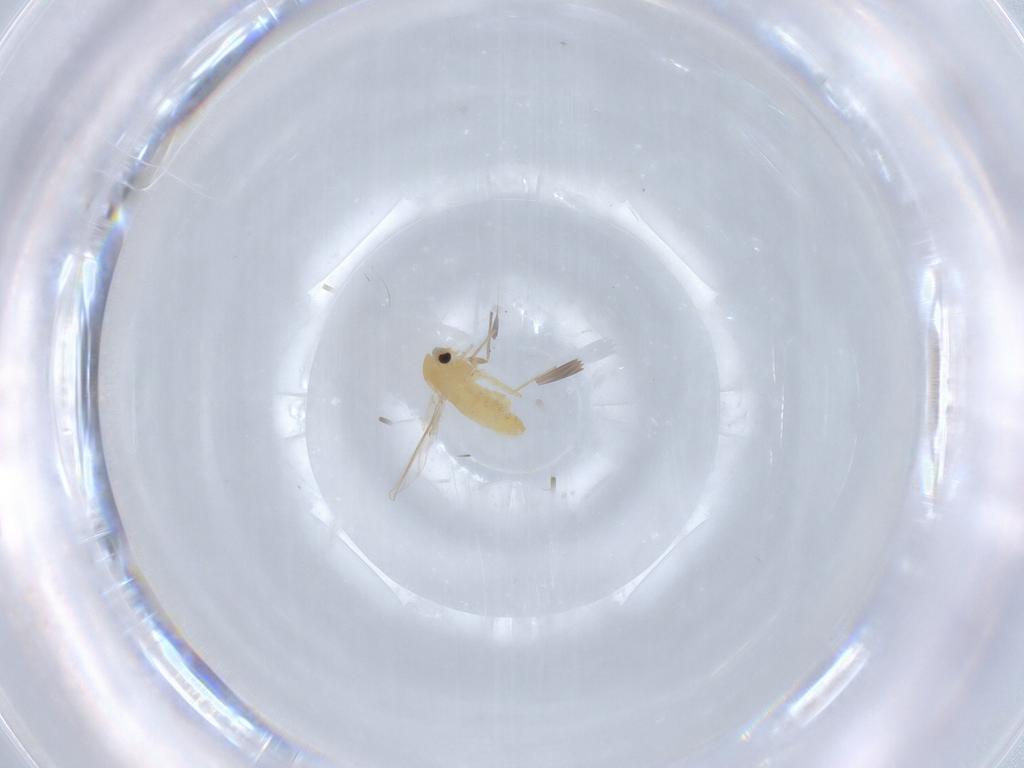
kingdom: Animalia
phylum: Arthropoda
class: Insecta
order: Diptera
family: Chironomidae
